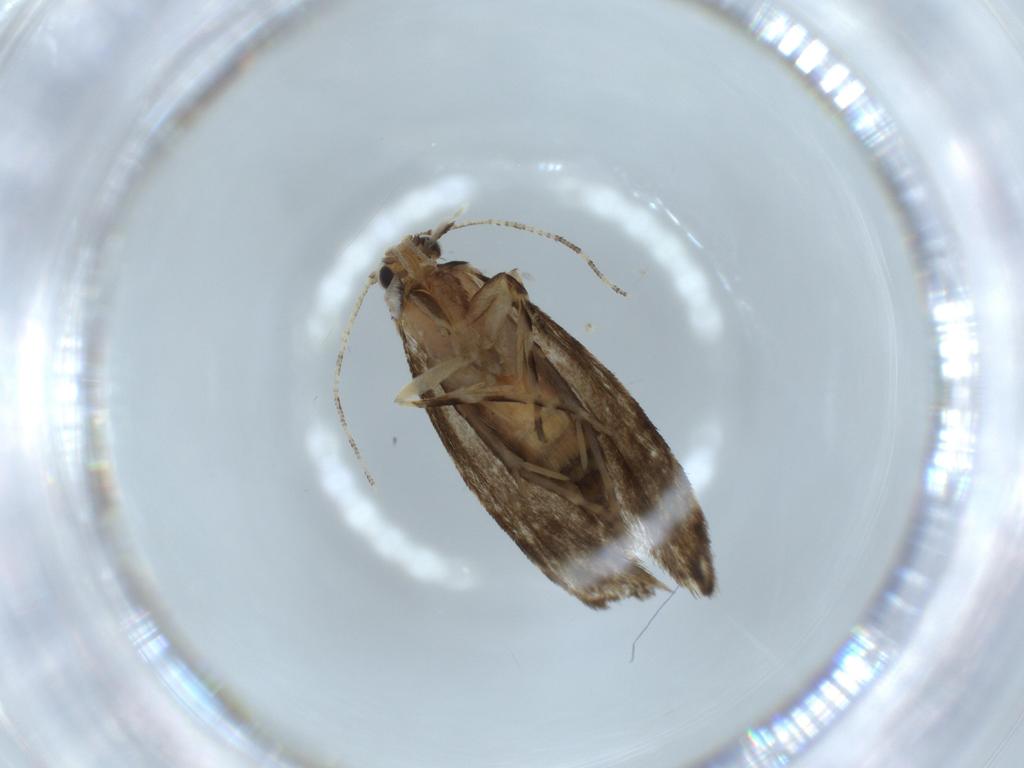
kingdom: Animalia
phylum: Arthropoda
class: Insecta
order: Lepidoptera
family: Tineidae
